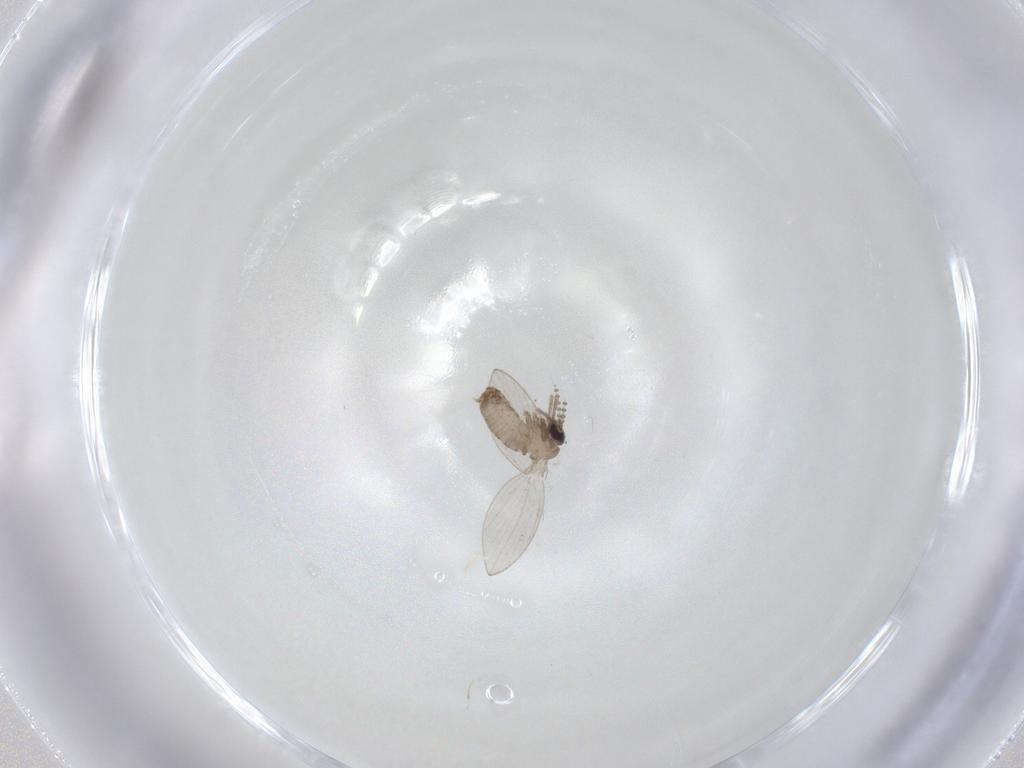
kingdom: Animalia
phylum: Arthropoda
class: Insecta
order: Diptera
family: Psychodidae
